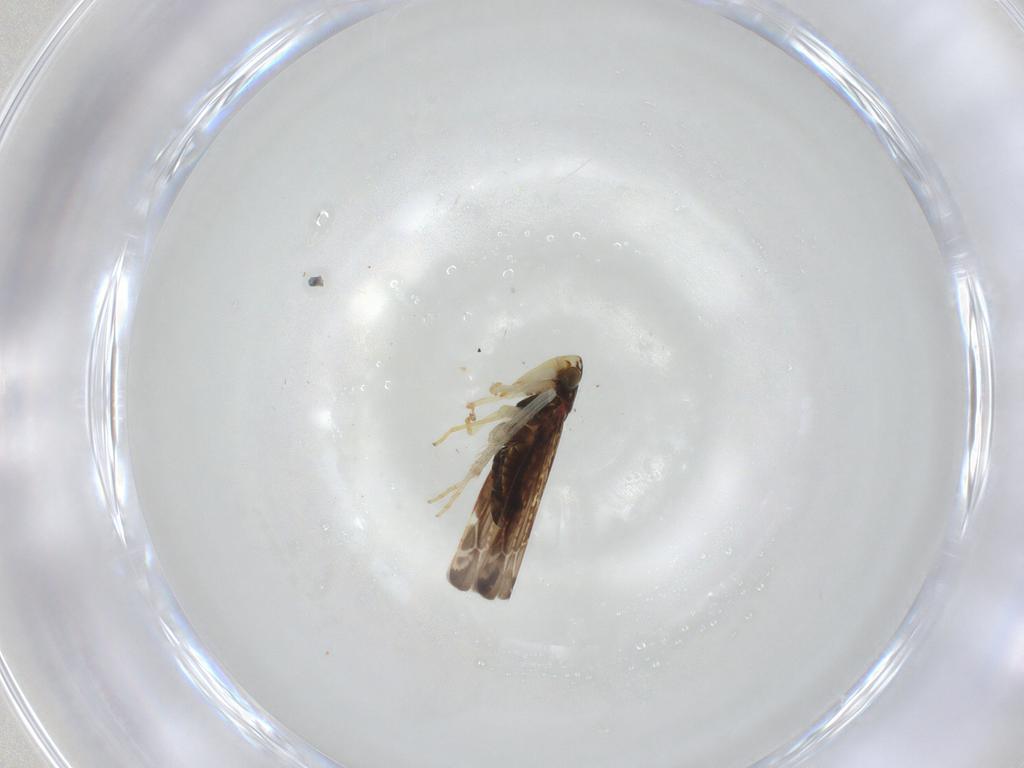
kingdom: Animalia
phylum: Arthropoda
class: Insecta
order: Hemiptera
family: Cicadellidae
